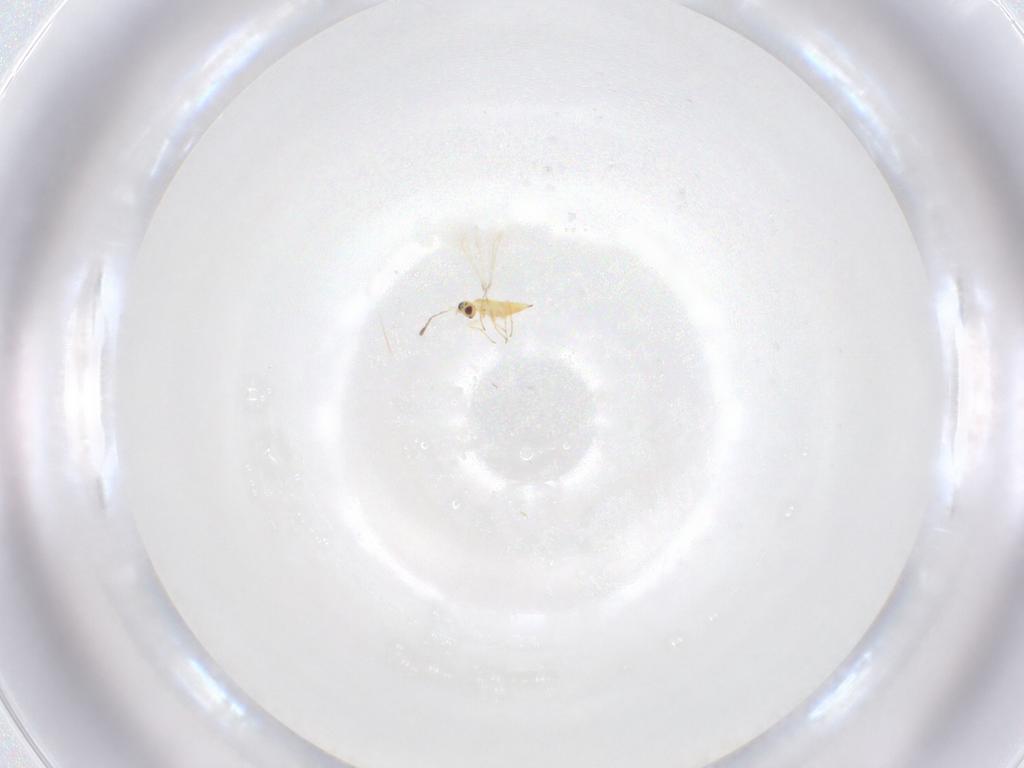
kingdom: Animalia
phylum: Arthropoda
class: Insecta
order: Hymenoptera
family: Mymaridae
